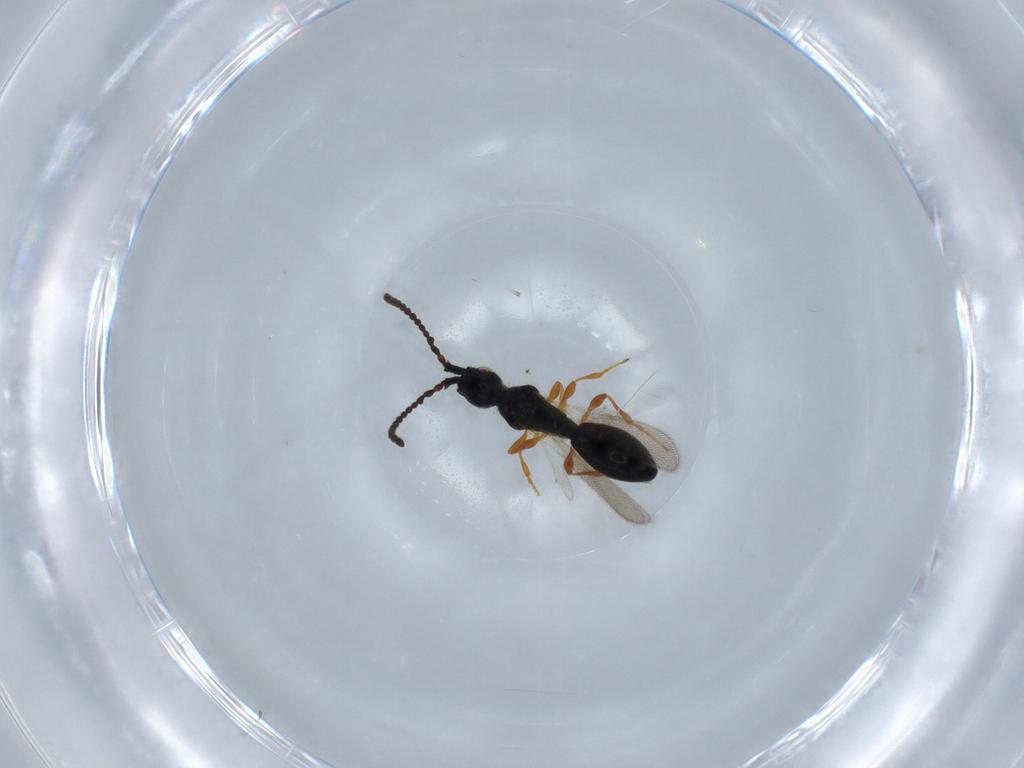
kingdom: Animalia
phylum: Arthropoda
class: Insecta
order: Hymenoptera
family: Diapriidae
